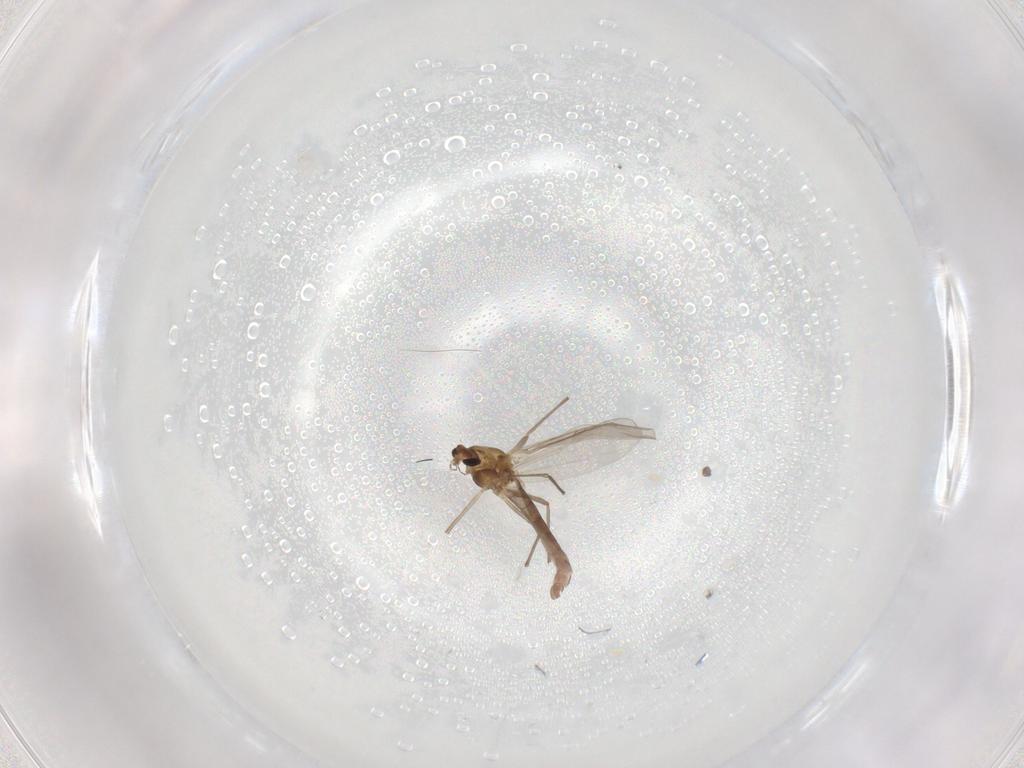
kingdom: Animalia
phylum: Arthropoda
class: Insecta
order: Diptera
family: Chironomidae
